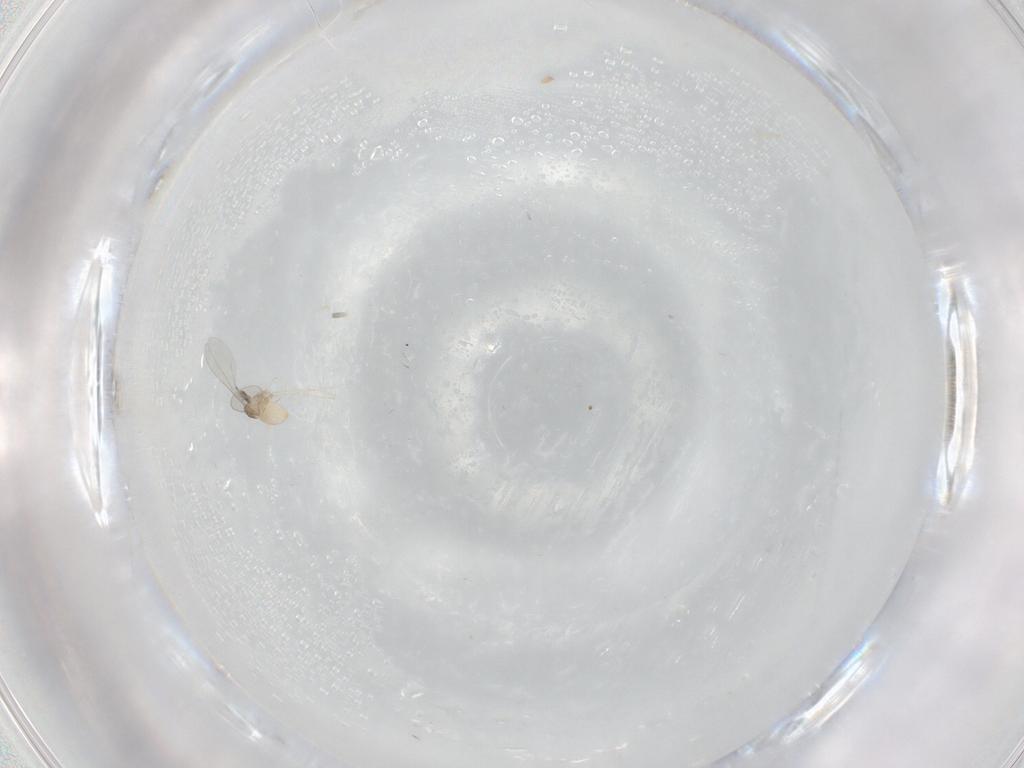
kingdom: Animalia
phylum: Arthropoda
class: Insecta
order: Diptera
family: Cecidomyiidae
